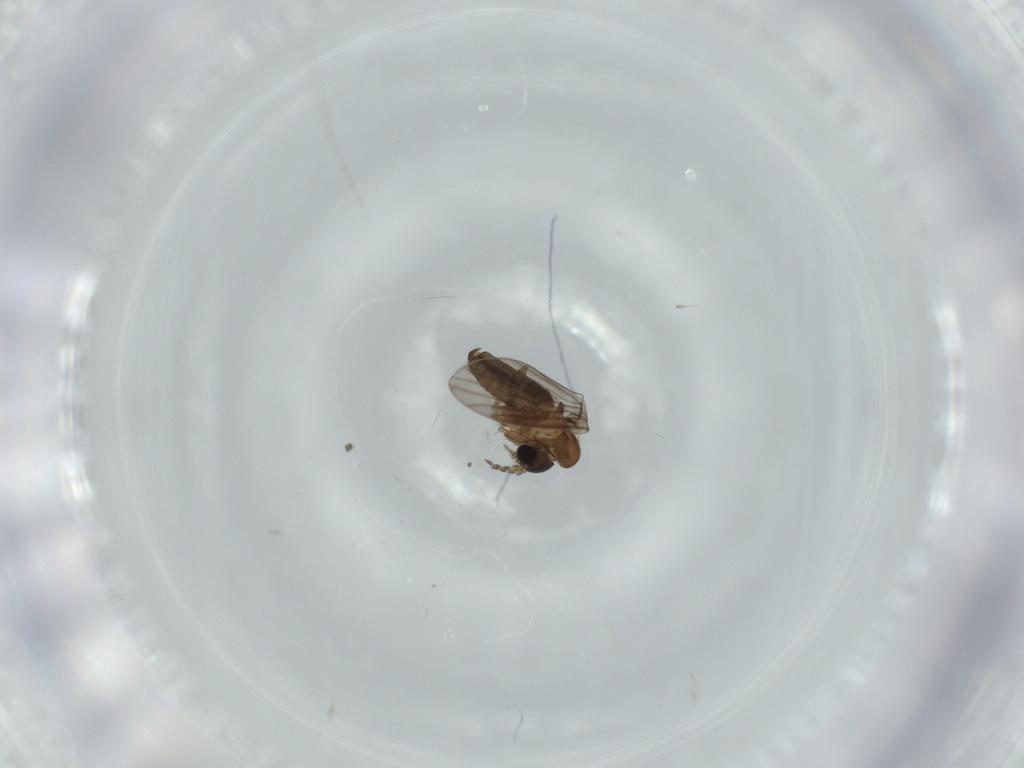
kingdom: Animalia
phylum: Arthropoda
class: Insecta
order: Diptera
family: Psychodidae
